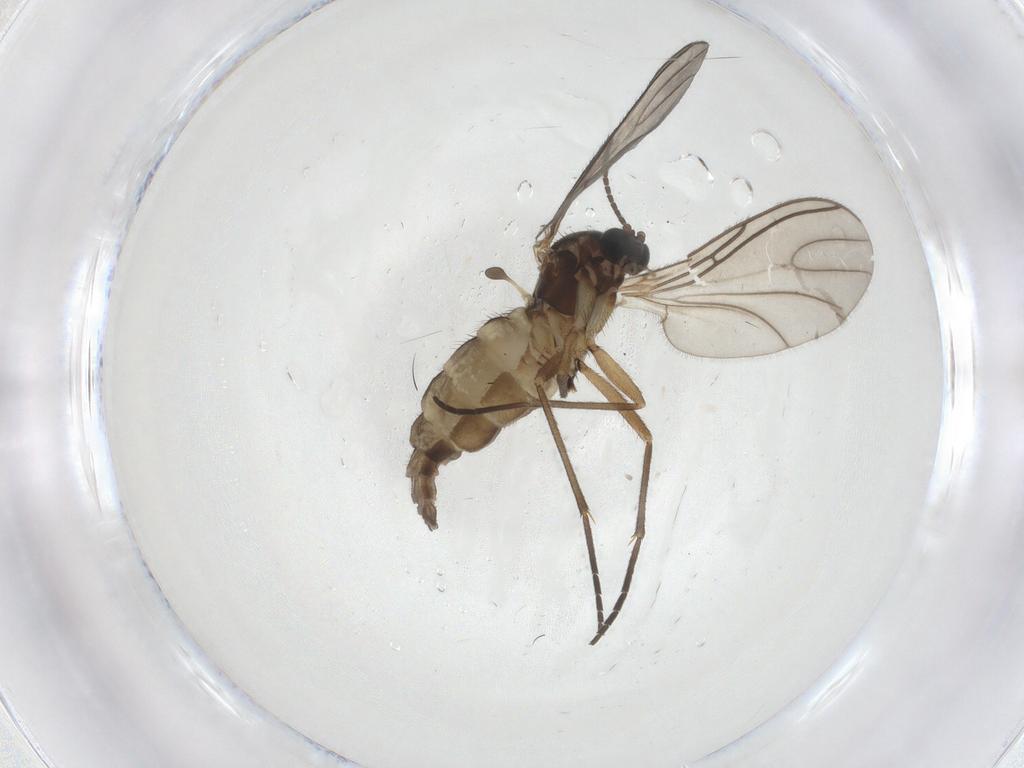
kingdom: Animalia
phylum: Arthropoda
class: Insecta
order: Diptera
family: Sciaridae
